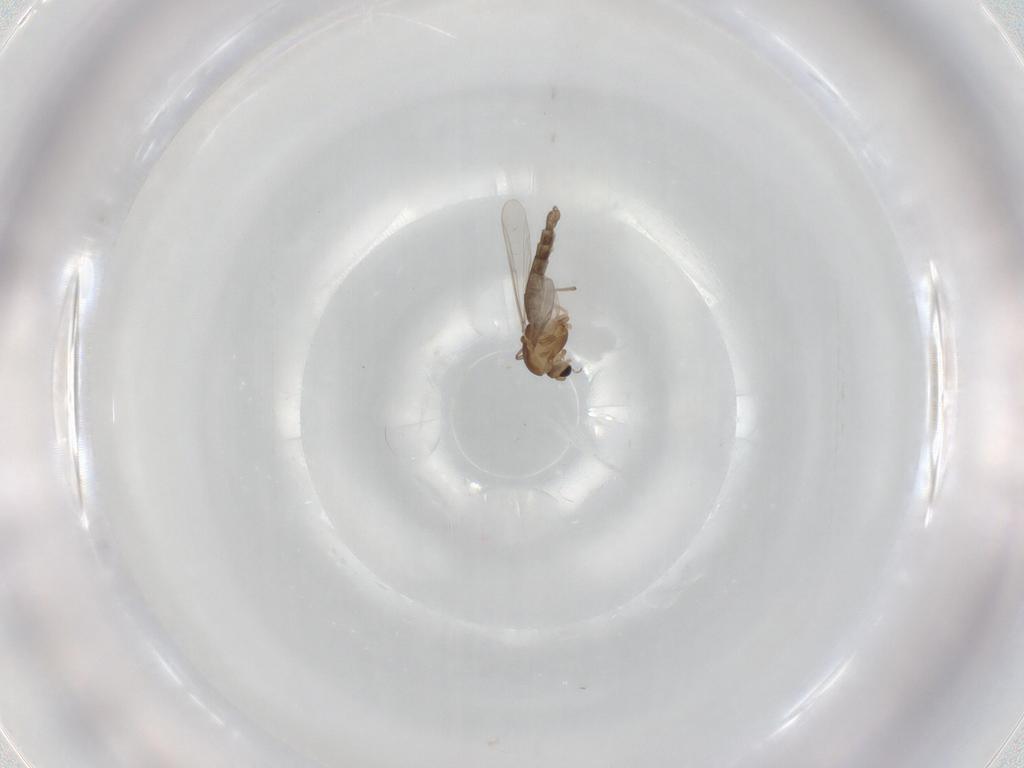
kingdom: Animalia
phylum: Arthropoda
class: Insecta
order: Diptera
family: Chironomidae
